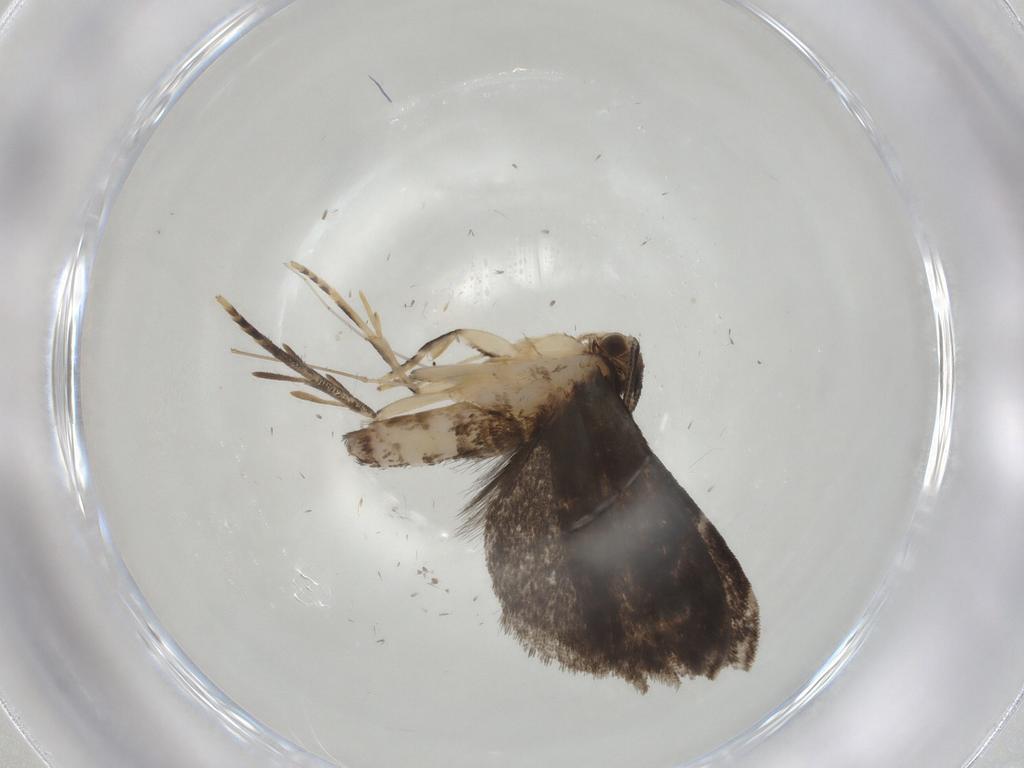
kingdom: Animalia
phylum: Arthropoda
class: Insecta
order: Lepidoptera
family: Dryadaulidae
